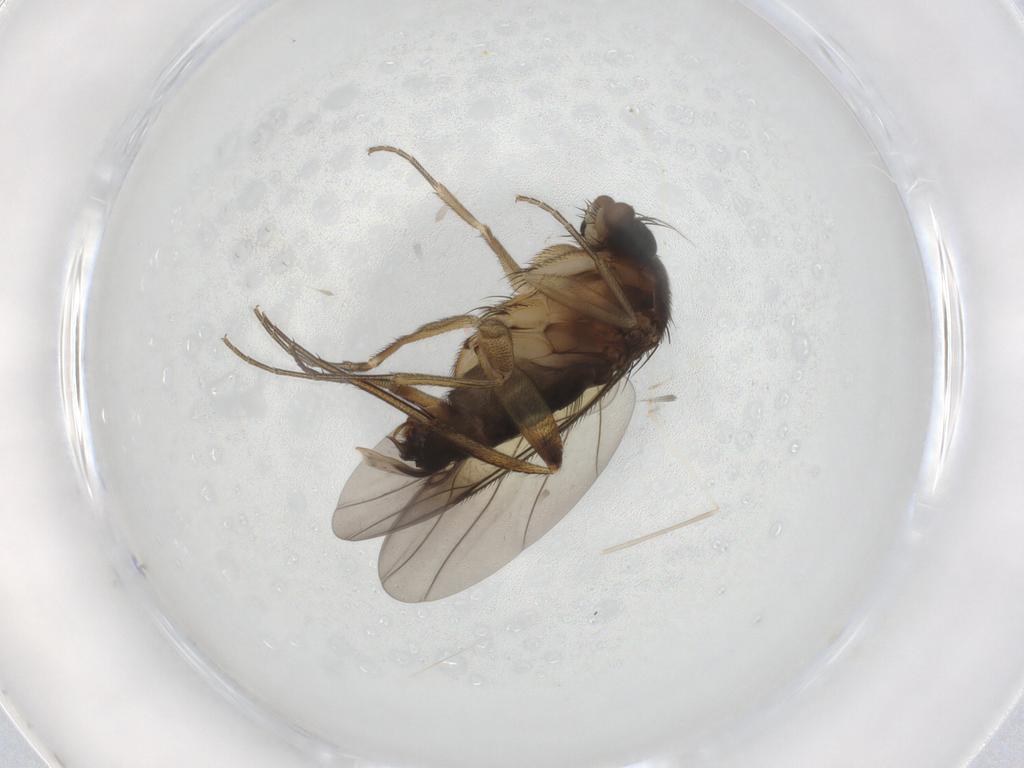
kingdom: Animalia
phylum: Arthropoda
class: Insecta
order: Diptera
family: Phoridae
